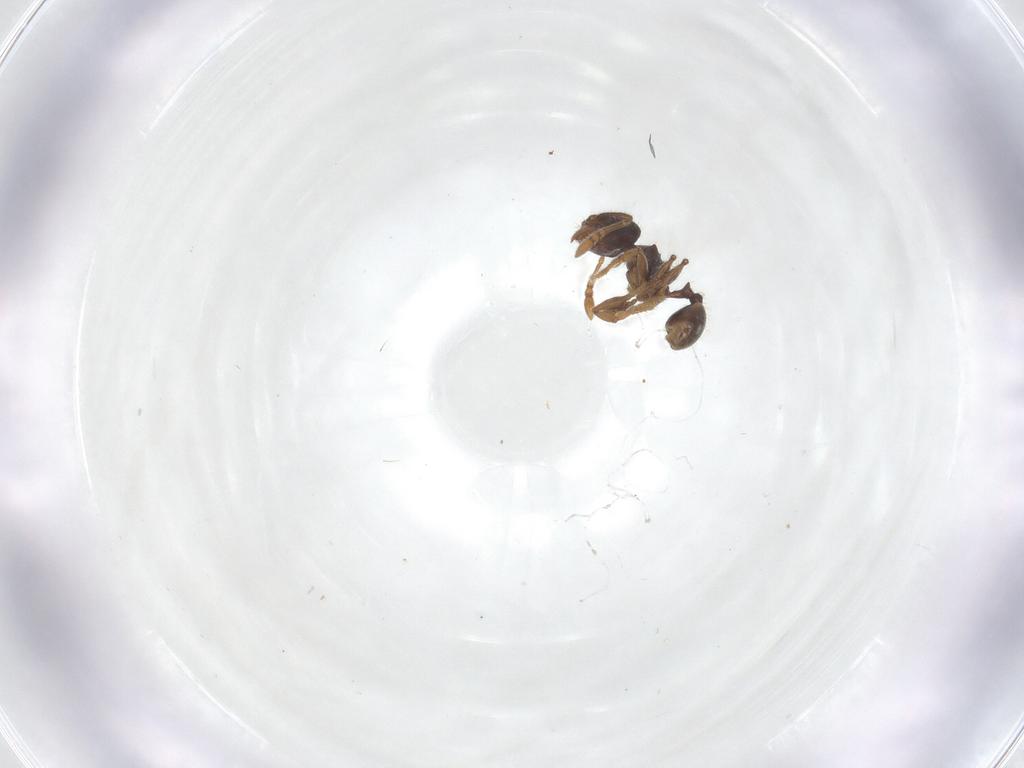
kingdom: Animalia
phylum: Arthropoda
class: Insecta
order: Hymenoptera
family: Formicidae
